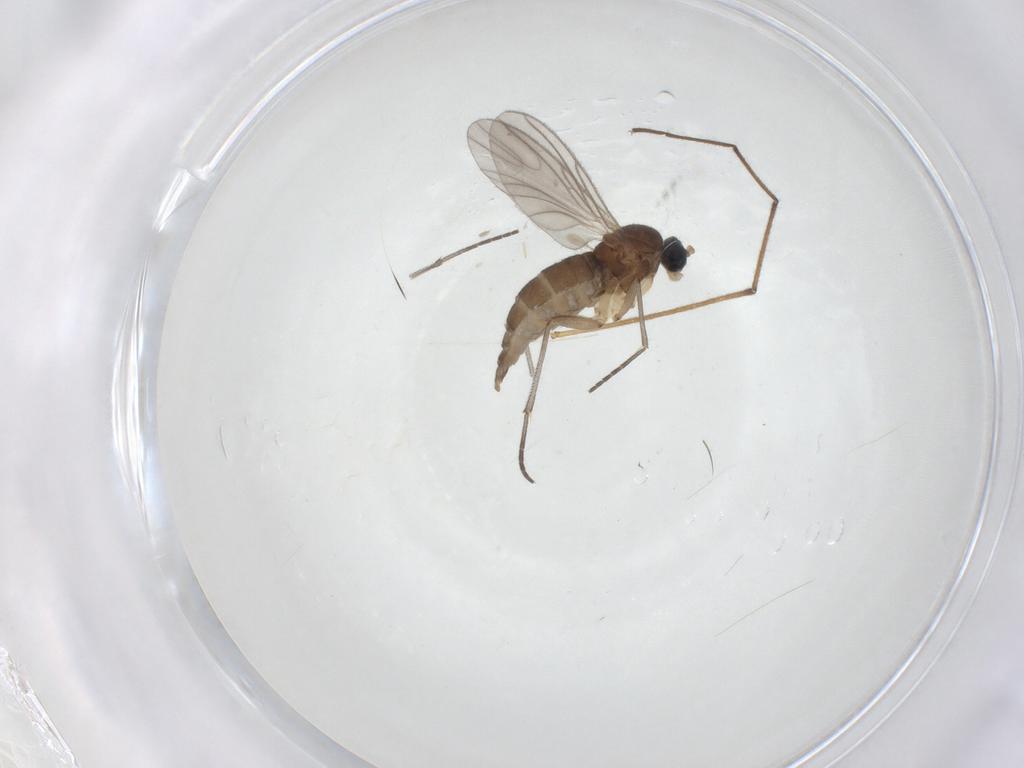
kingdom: Animalia
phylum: Arthropoda
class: Insecta
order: Diptera
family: Sciaridae
